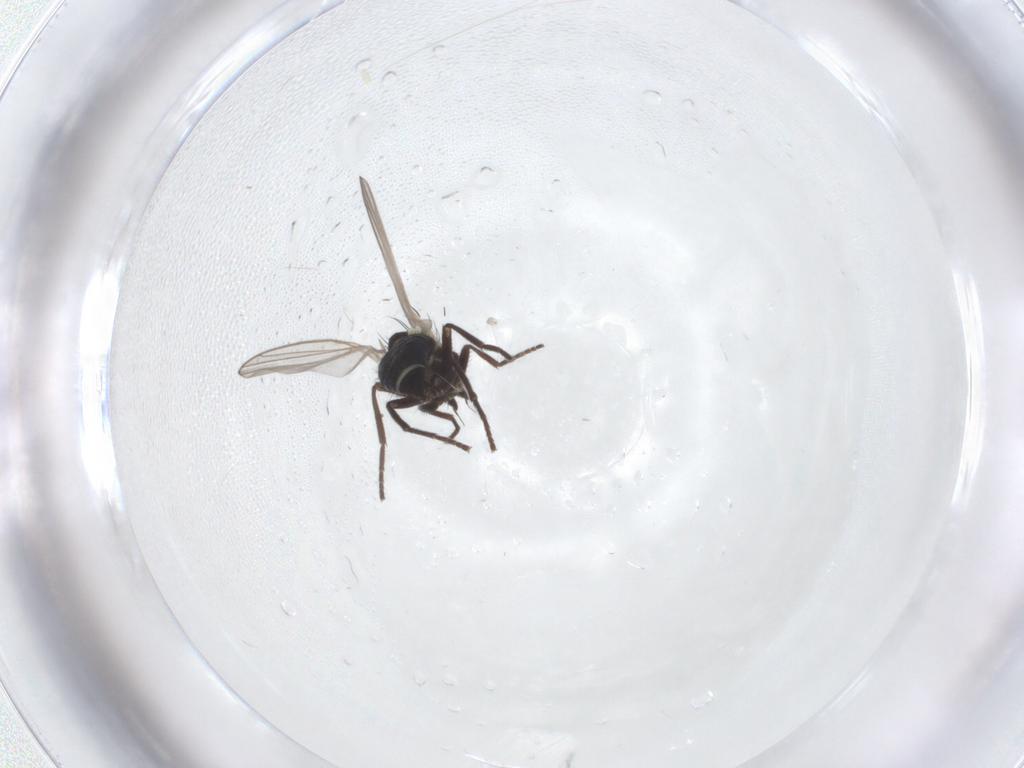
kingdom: Animalia
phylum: Arthropoda
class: Insecta
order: Diptera
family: Agromyzidae
